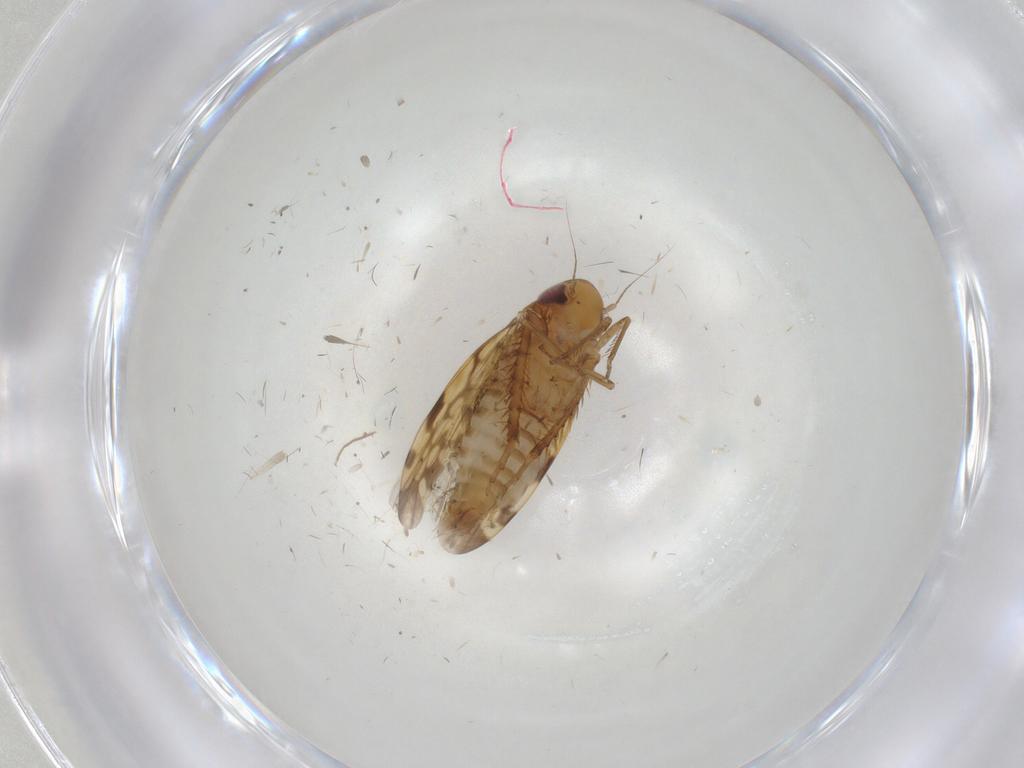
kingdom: Animalia
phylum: Arthropoda
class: Insecta
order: Hemiptera
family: Cicadellidae
